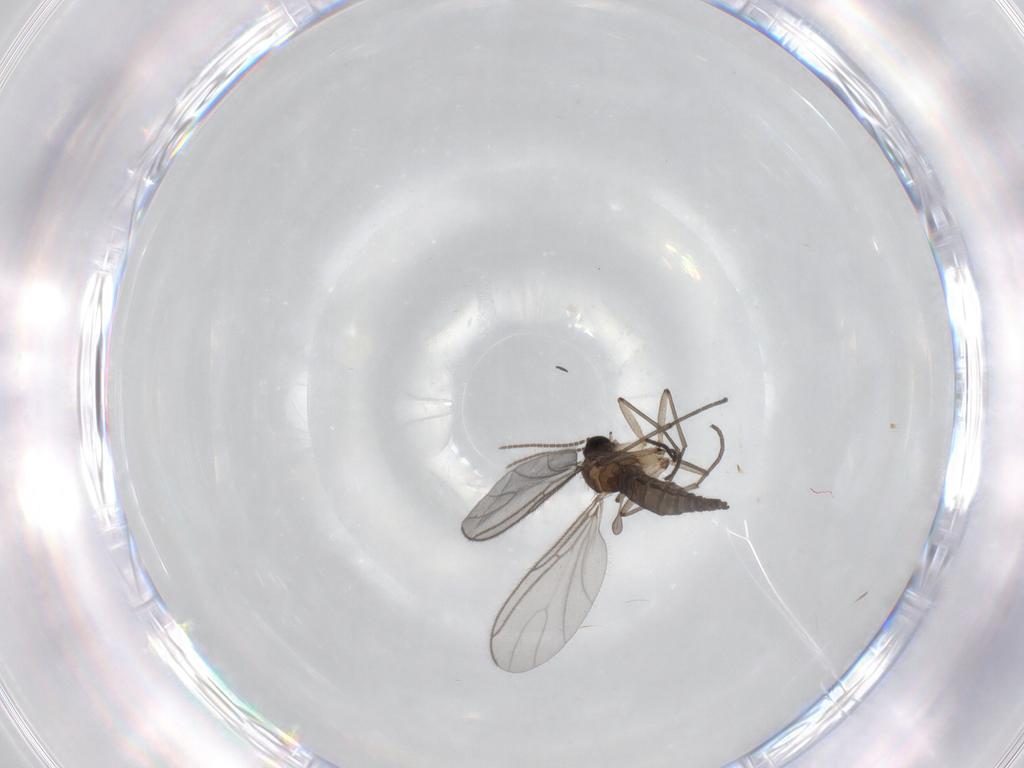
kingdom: Animalia
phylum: Arthropoda
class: Insecta
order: Diptera
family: Sciaridae
